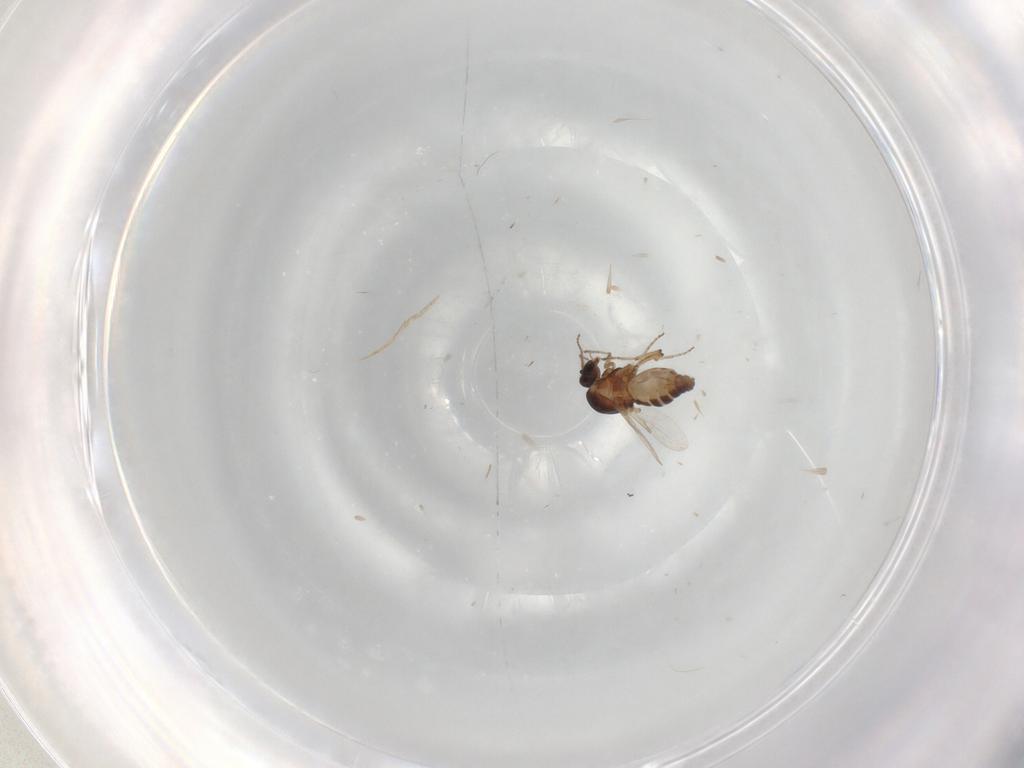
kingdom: Animalia
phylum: Arthropoda
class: Insecta
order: Diptera
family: Ceratopogonidae
